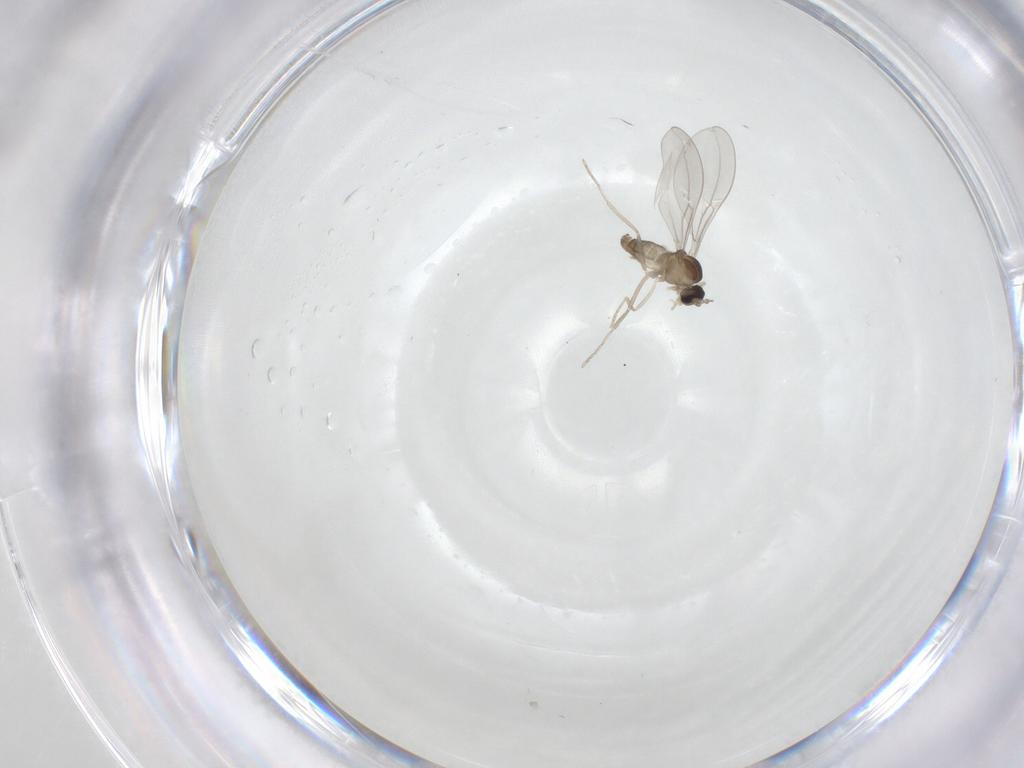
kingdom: Animalia
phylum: Arthropoda
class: Insecta
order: Diptera
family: Cecidomyiidae
